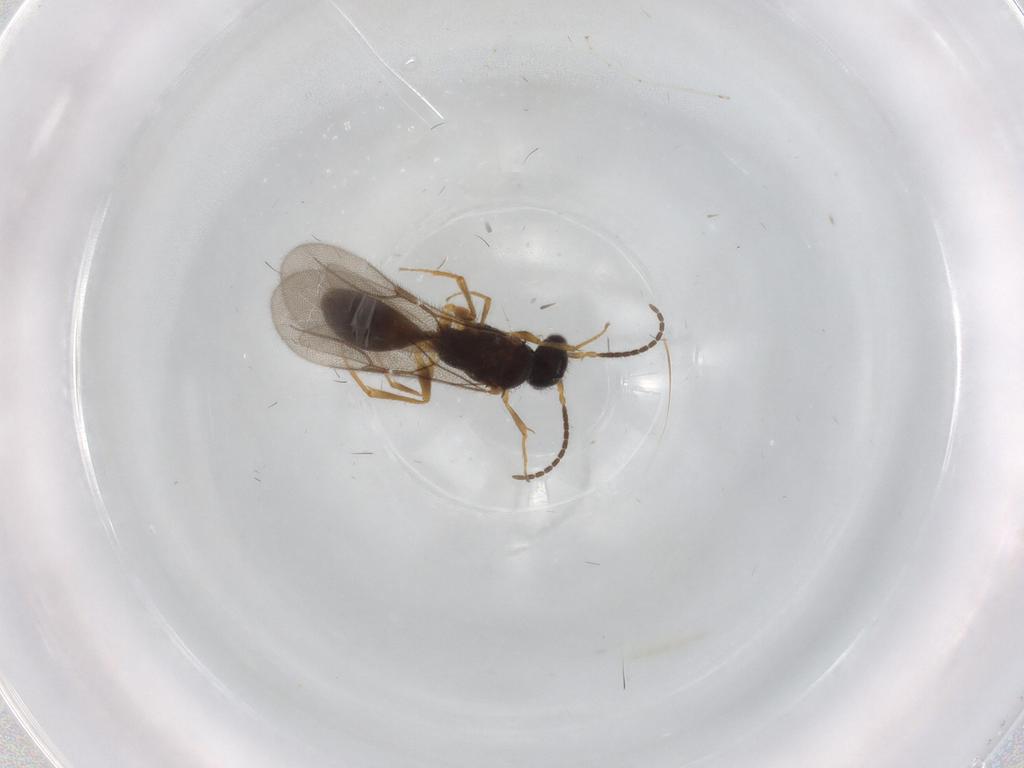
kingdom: Animalia
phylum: Arthropoda
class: Insecta
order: Hymenoptera
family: Bethylidae
